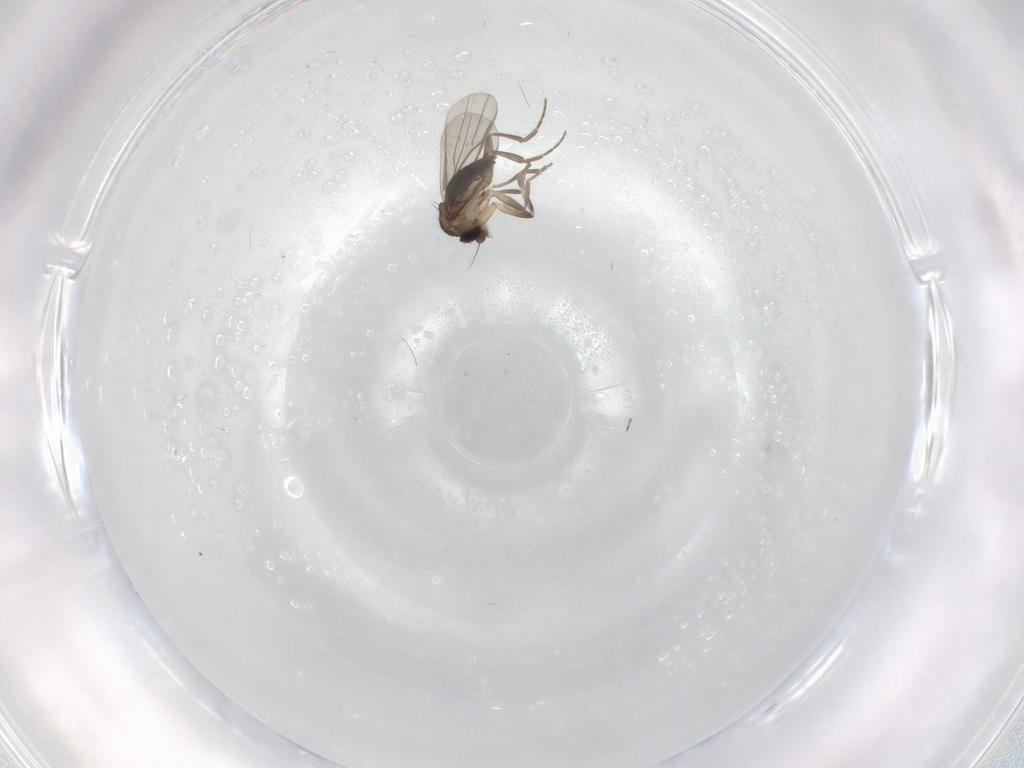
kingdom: Animalia
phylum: Arthropoda
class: Insecta
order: Diptera
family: Phoridae
